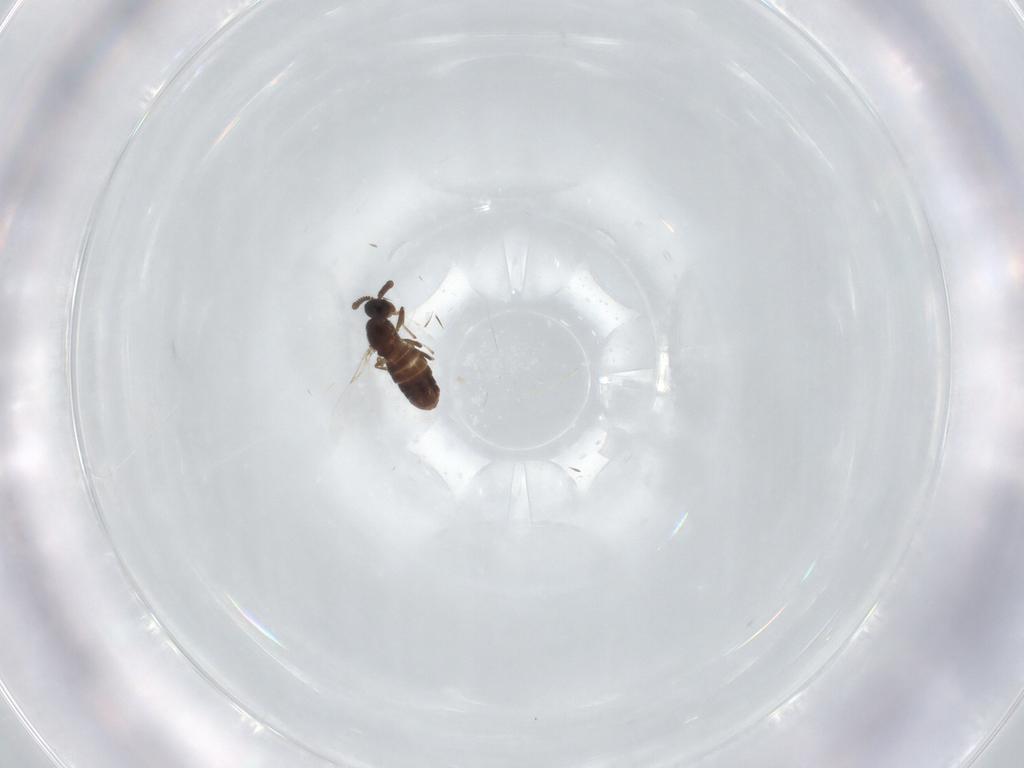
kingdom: Animalia
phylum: Arthropoda
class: Insecta
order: Diptera
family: Scatopsidae
